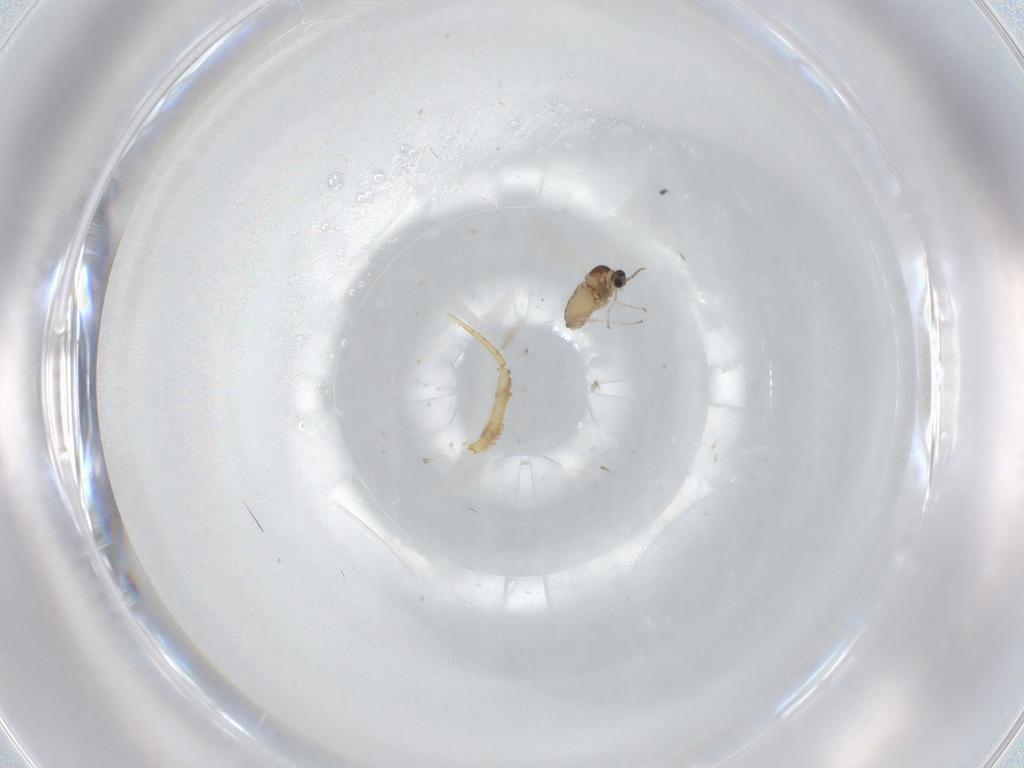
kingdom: Animalia
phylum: Arthropoda
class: Insecta
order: Diptera
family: Cecidomyiidae
